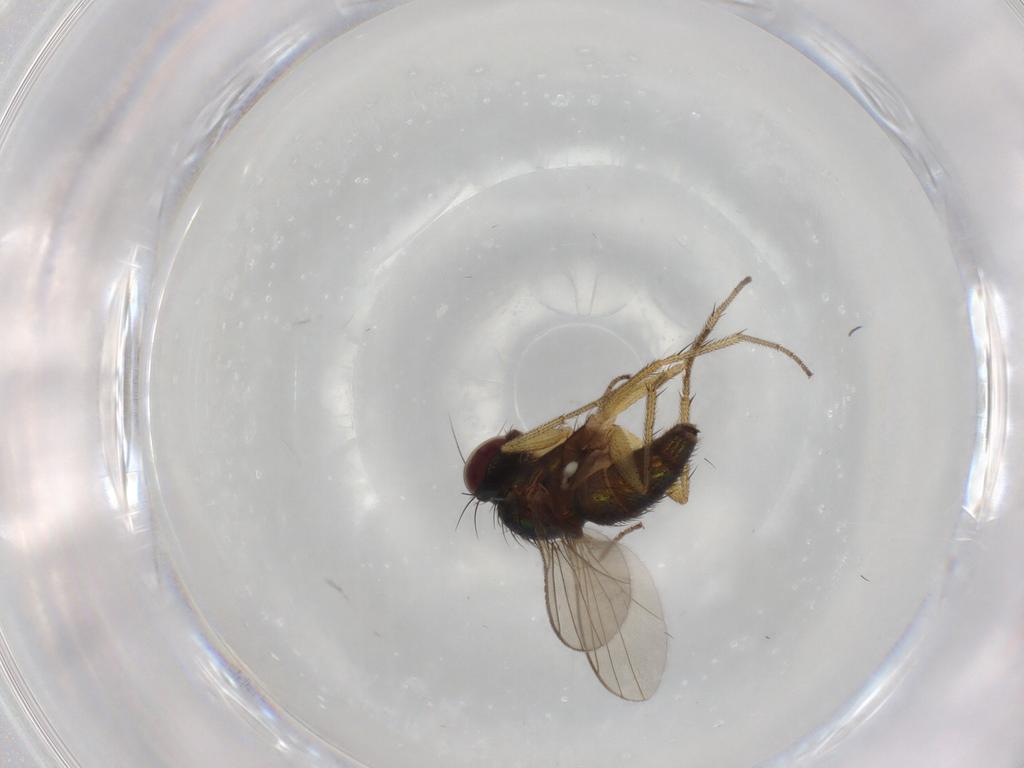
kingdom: Animalia
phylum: Arthropoda
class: Insecta
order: Diptera
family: Dolichopodidae
